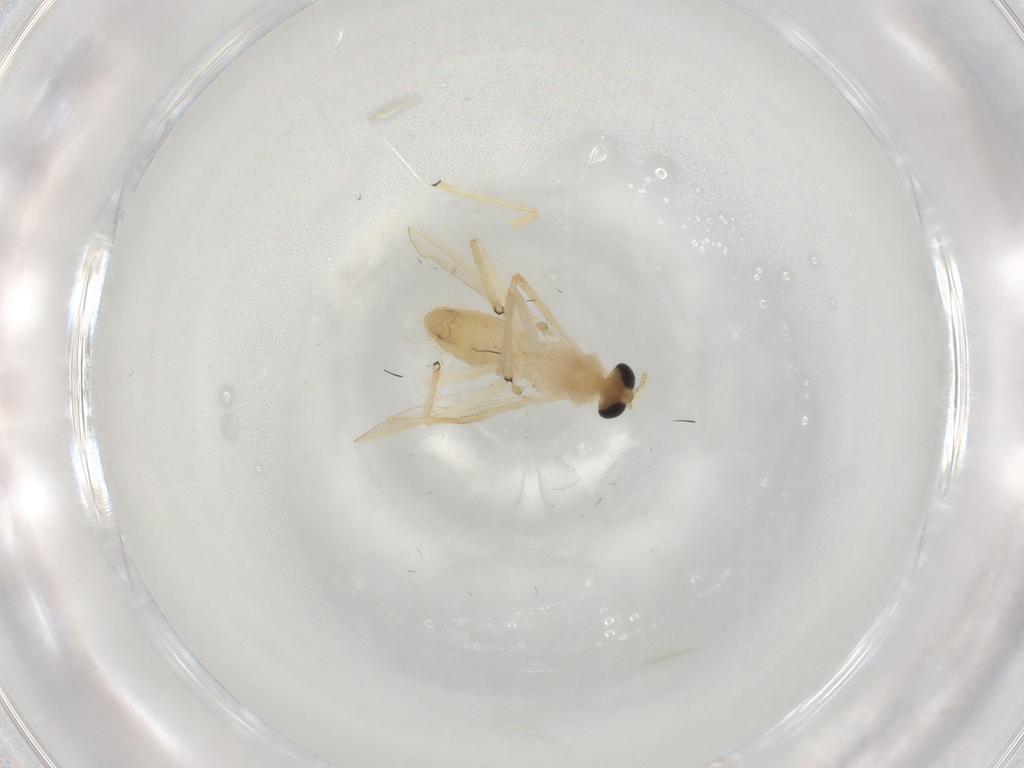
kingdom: Animalia
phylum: Arthropoda
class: Insecta
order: Diptera
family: Chironomidae
